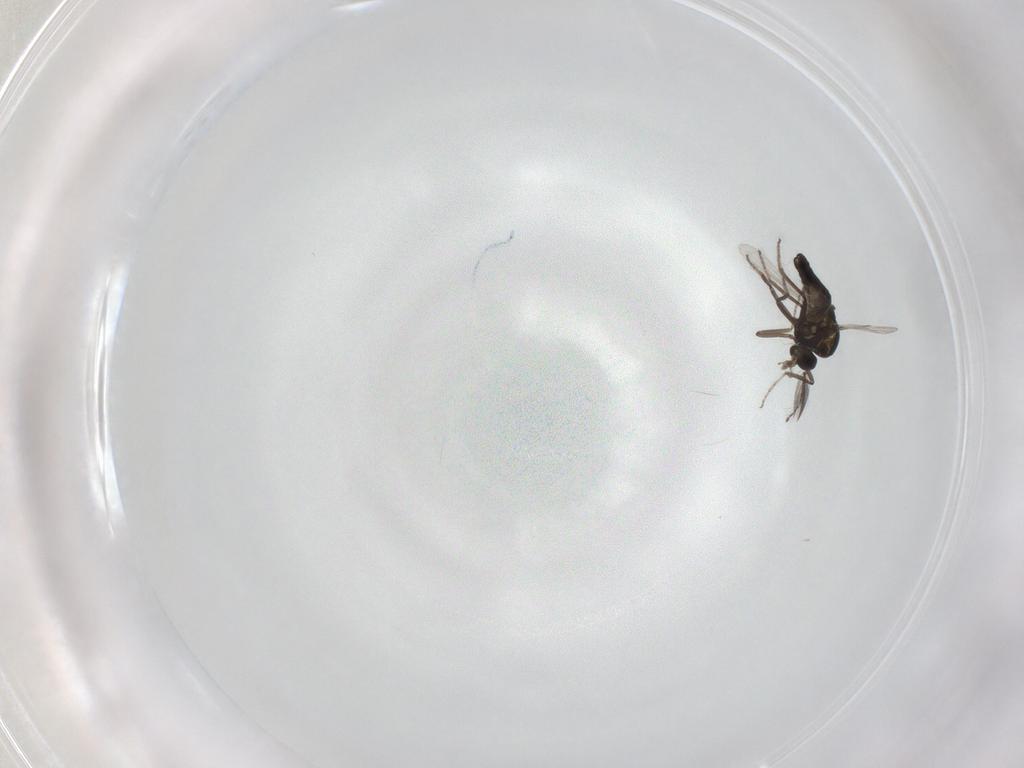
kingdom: Animalia
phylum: Arthropoda
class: Insecta
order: Diptera
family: Ceratopogonidae
